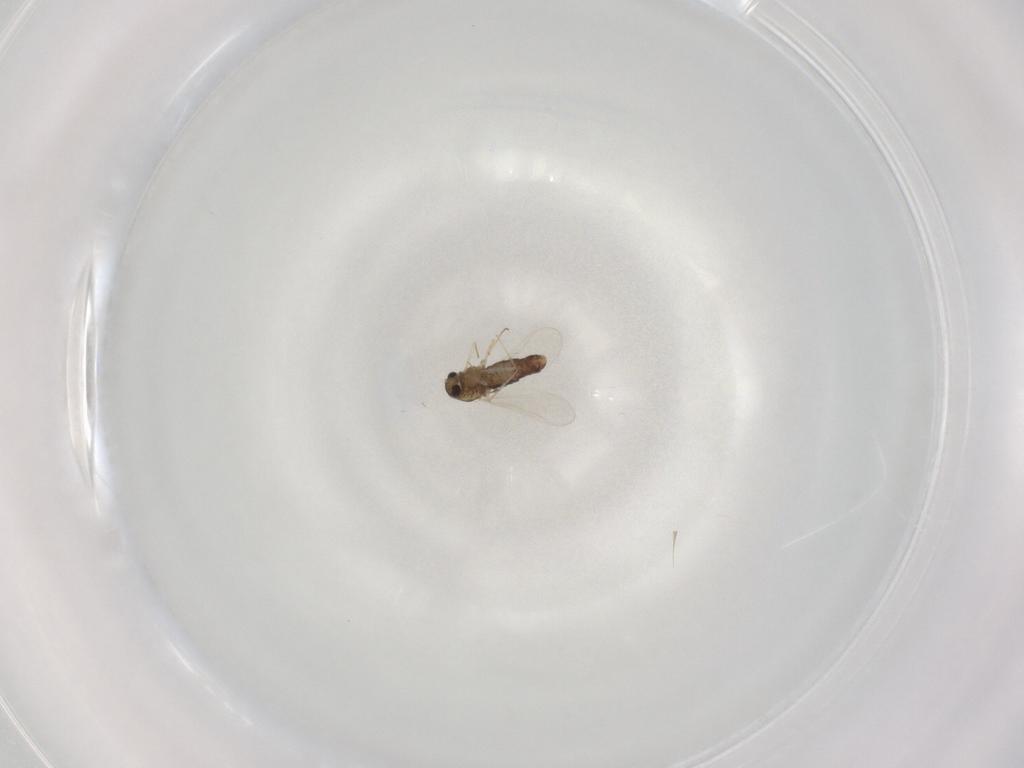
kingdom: Animalia
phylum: Arthropoda
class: Insecta
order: Diptera
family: Chironomidae
